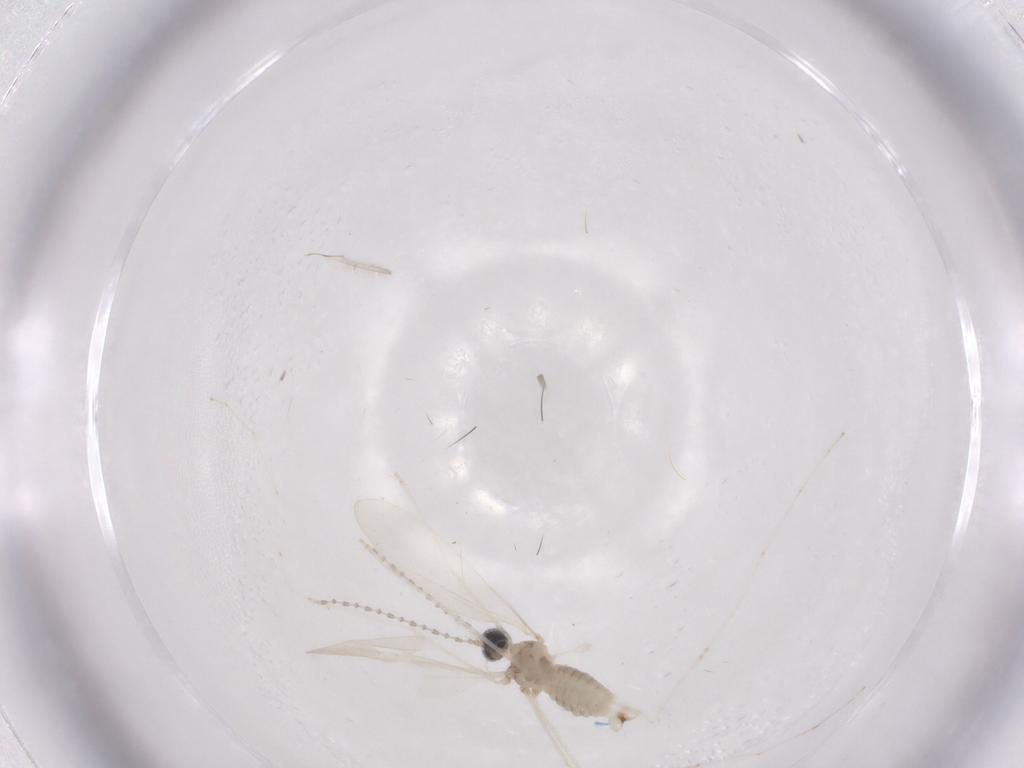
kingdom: Animalia
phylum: Arthropoda
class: Insecta
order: Diptera
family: Cecidomyiidae
